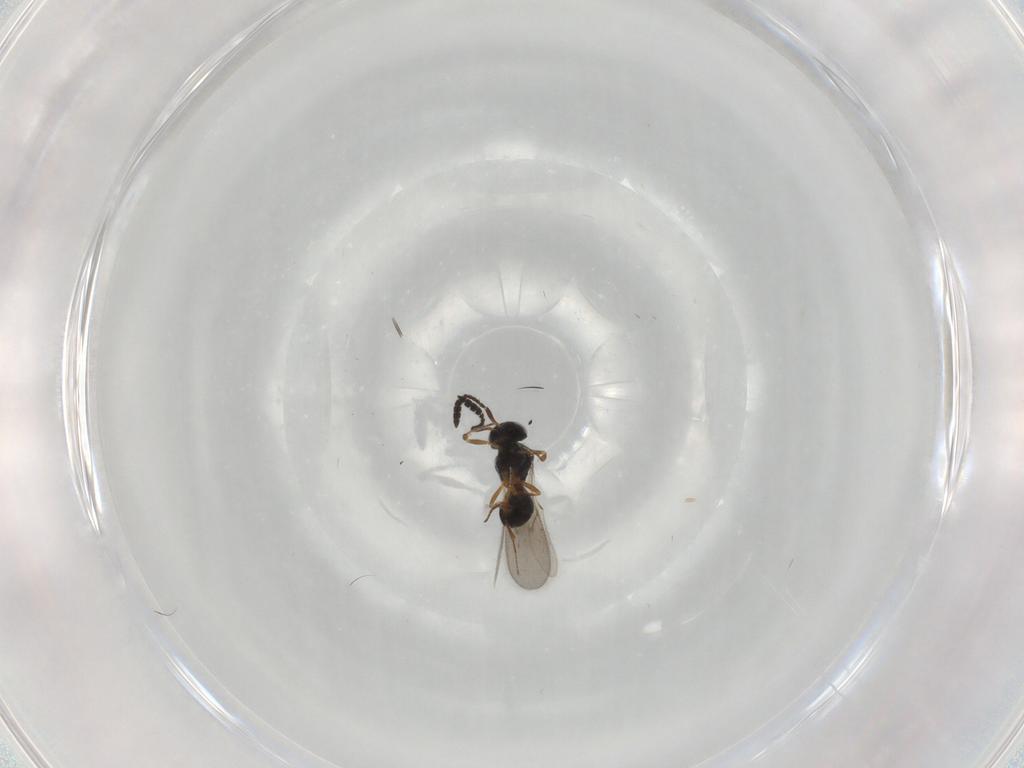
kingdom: Animalia
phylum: Arthropoda
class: Insecta
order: Hymenoptera
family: Scelionidae
